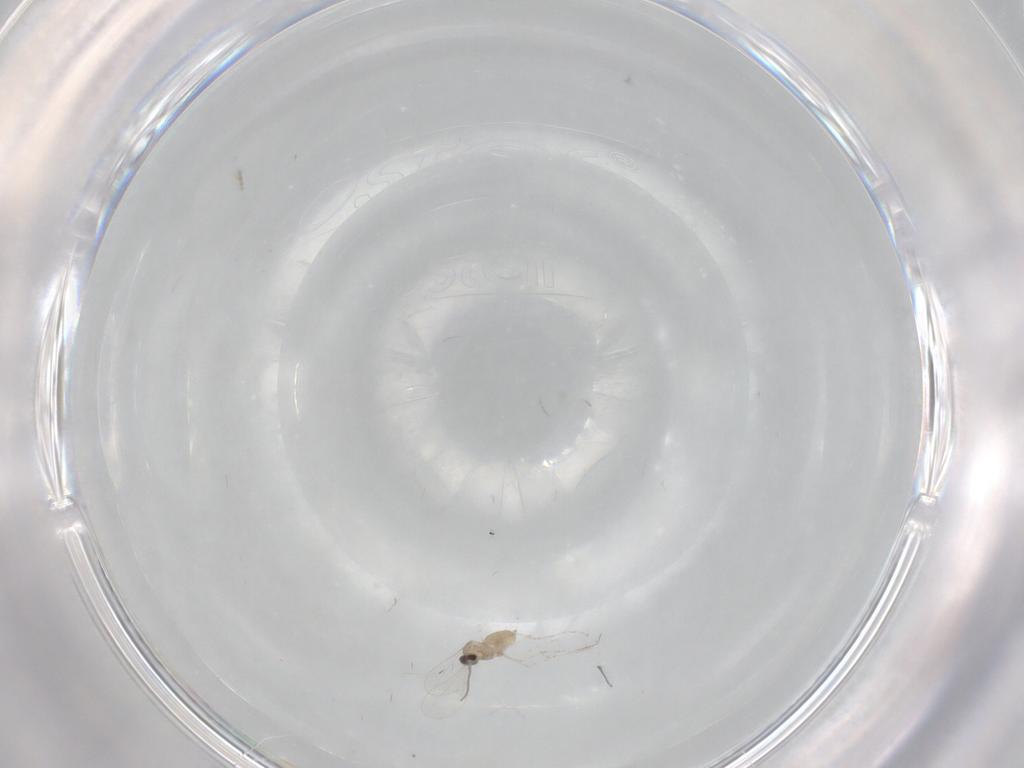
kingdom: Animalia
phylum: Arthropoda
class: Insecta
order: Diptera
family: Cecidomyiidae
